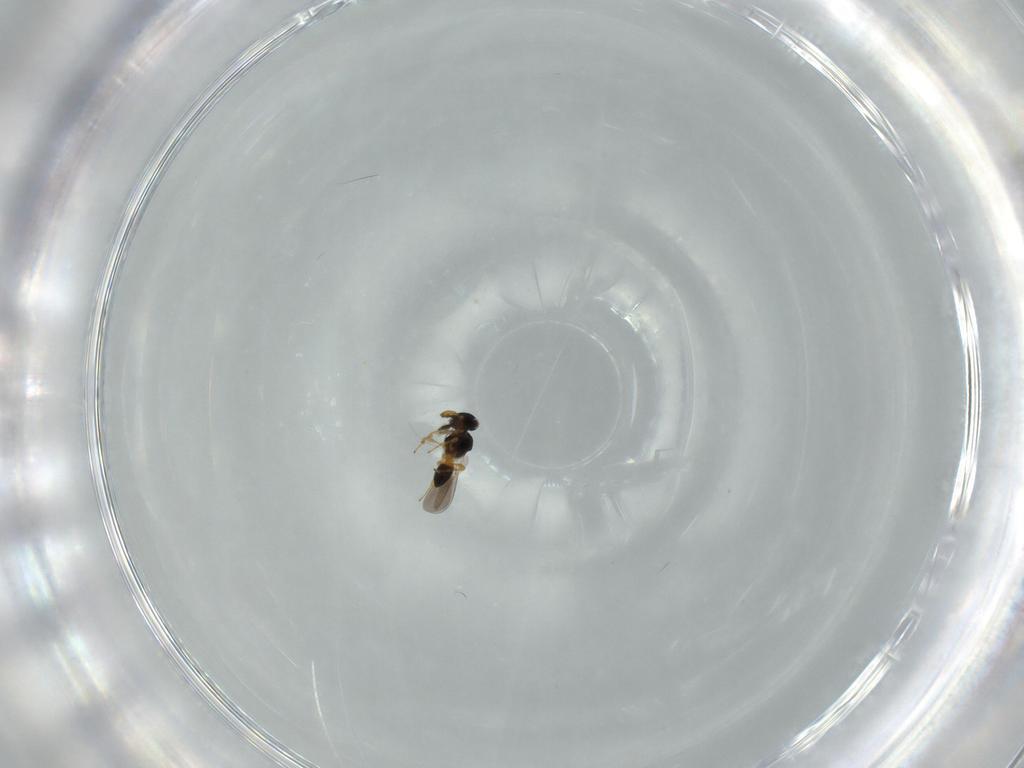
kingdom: Animalia
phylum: Arthropoda
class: Insecta
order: Hymenoptera
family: Platygastridae
